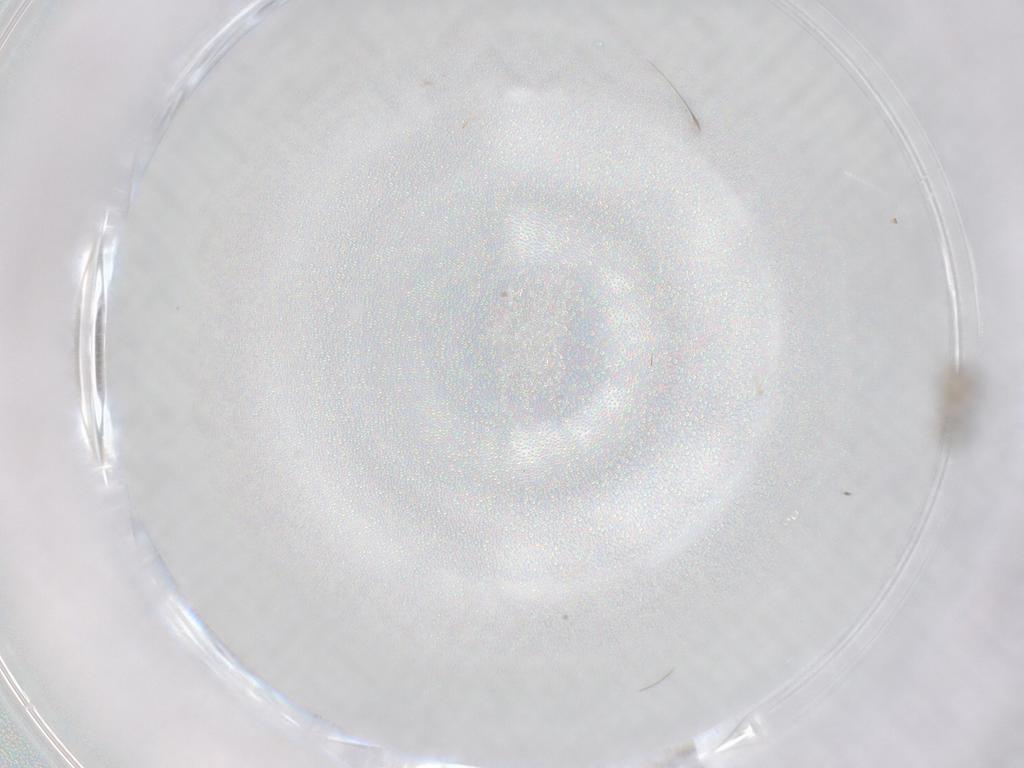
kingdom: Animalia
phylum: Arthropoda
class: Insecta
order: Diptera
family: Cecidomyiidae
